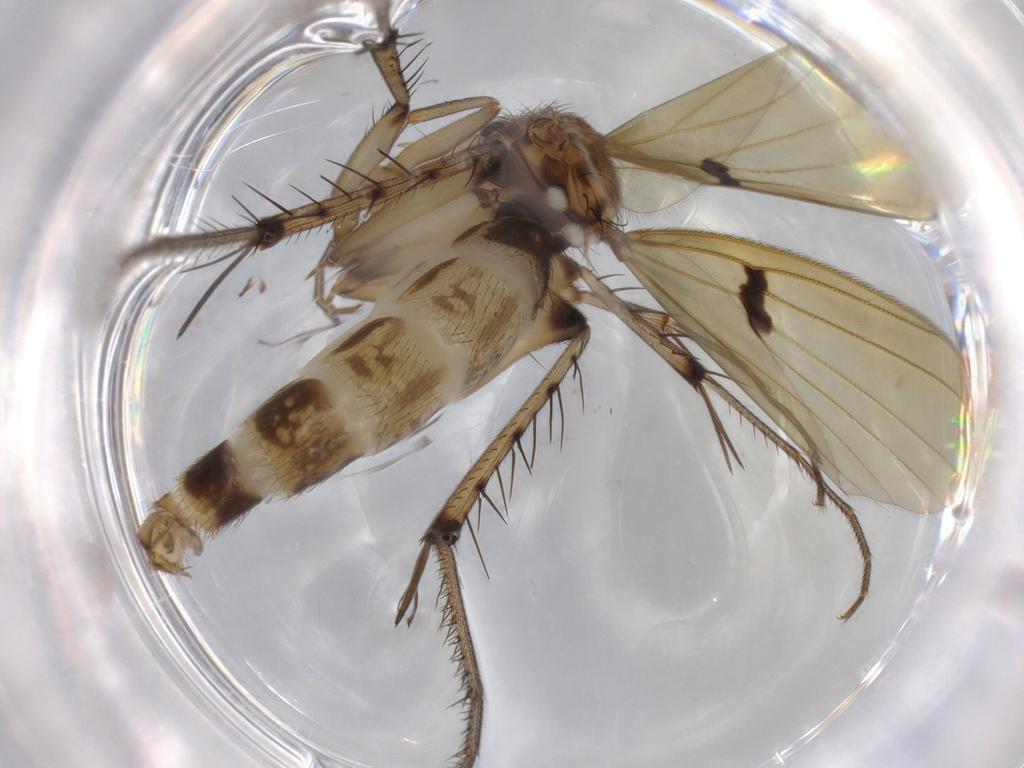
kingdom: Animalia
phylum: Arthropoda
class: Insecta
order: Diptera
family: Mycetophilidae
